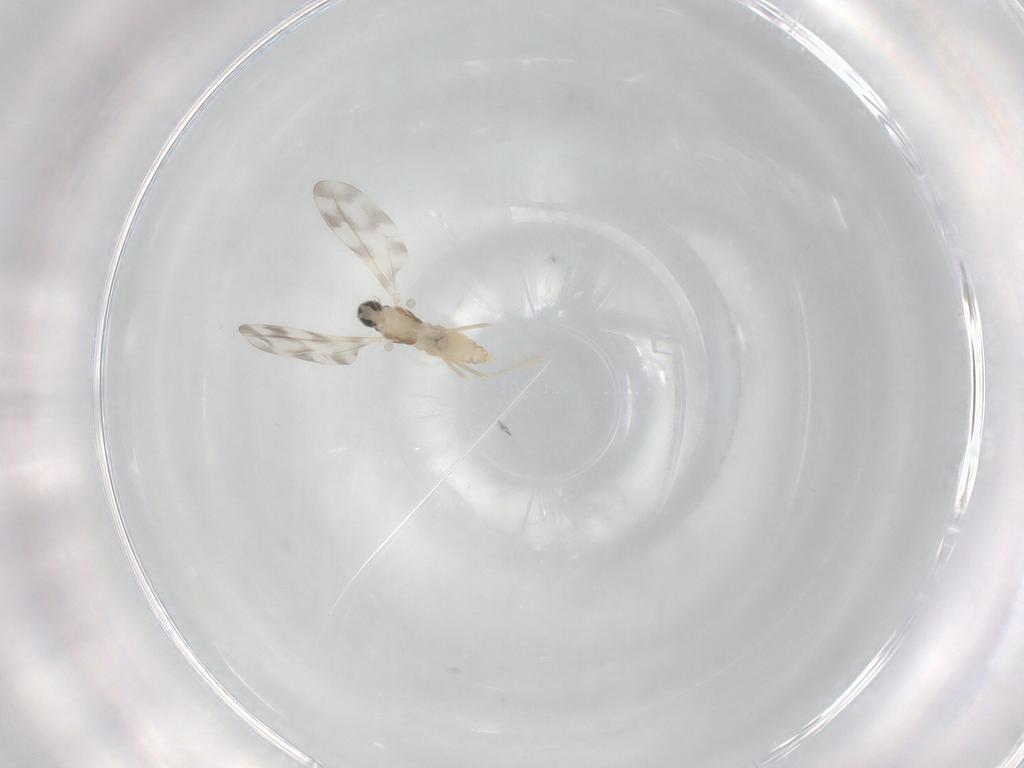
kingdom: Animalia
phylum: Arthropoda
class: Insecta
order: Diptera
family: Cecidomyiidae
